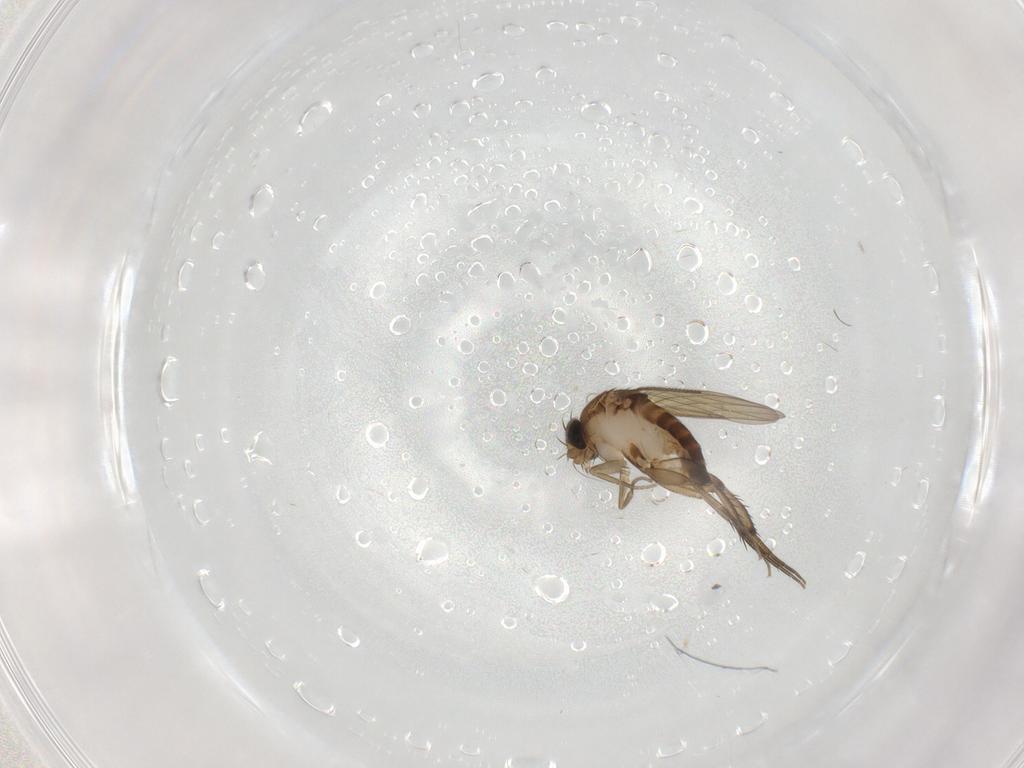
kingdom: Animalia
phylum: Arthropoda
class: Insecta
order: Diptera
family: Phoridae
